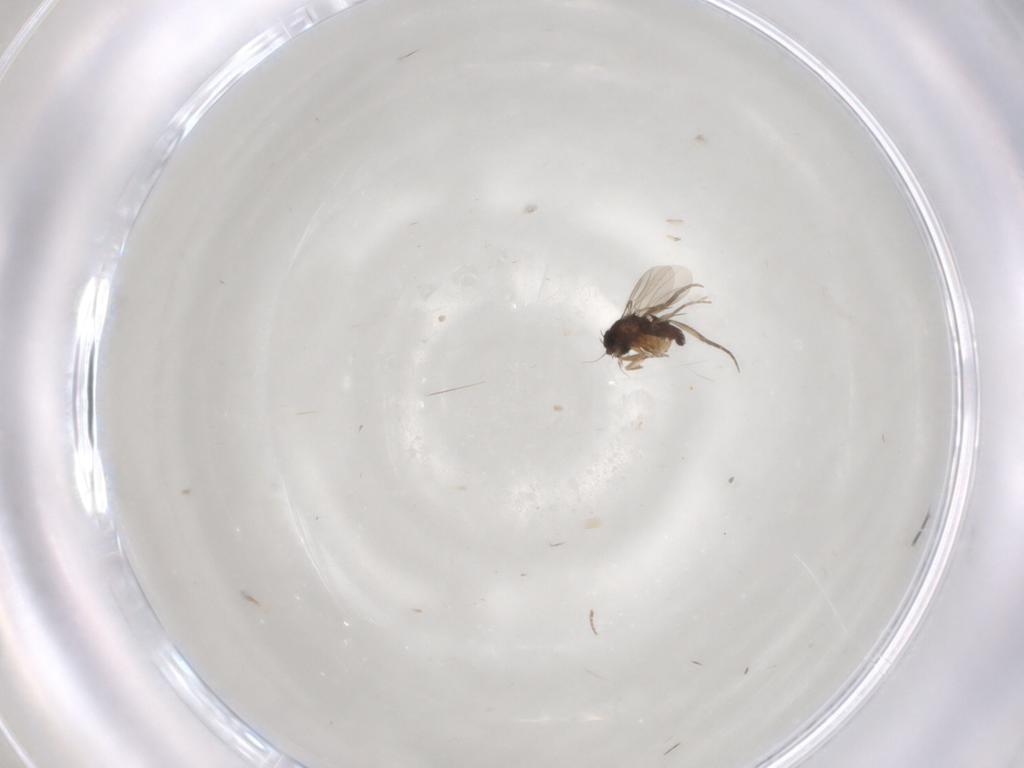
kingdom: Animalia
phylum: Arthropoda
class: Insecta
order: Diptera
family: Phoridae
